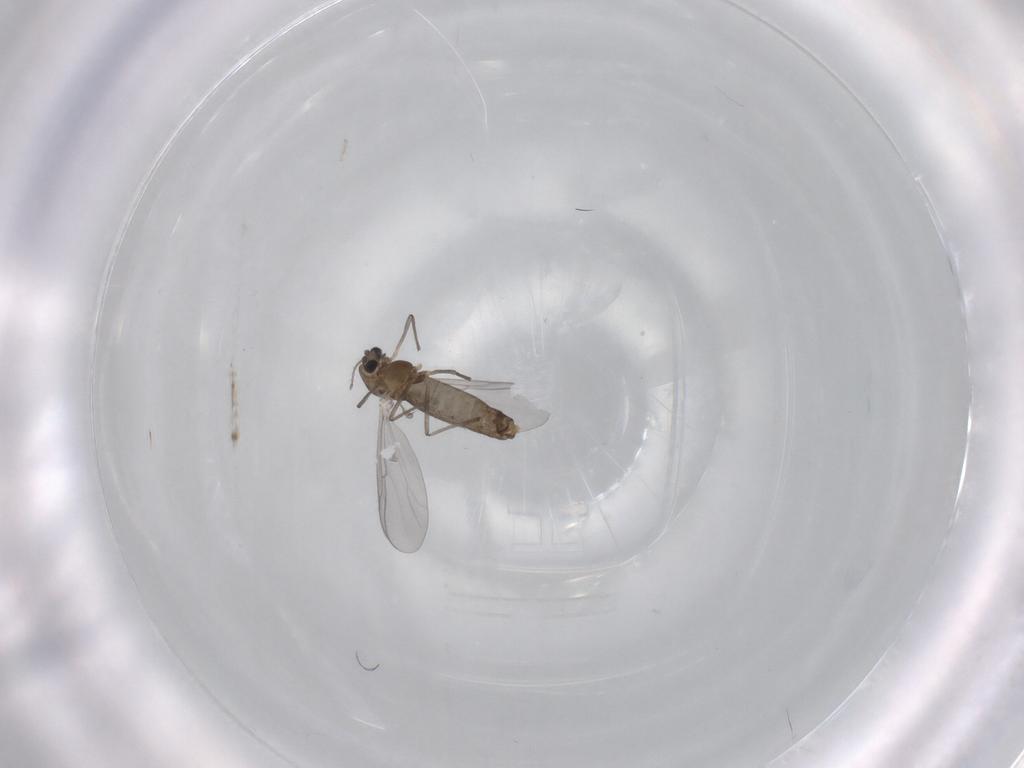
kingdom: Animalia
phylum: Arthropoda
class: Insecta
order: Diptera
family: Chironomidae
